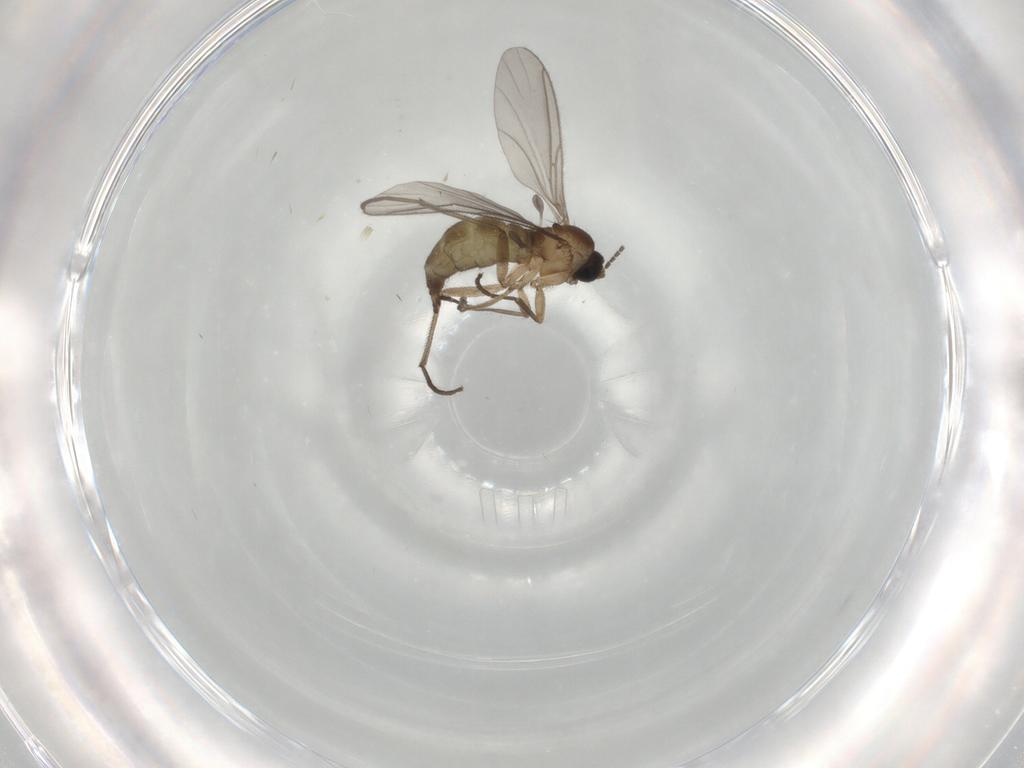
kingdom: Animalia
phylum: Arthropoda
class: Insecta
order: Diptera
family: Sciaridae
